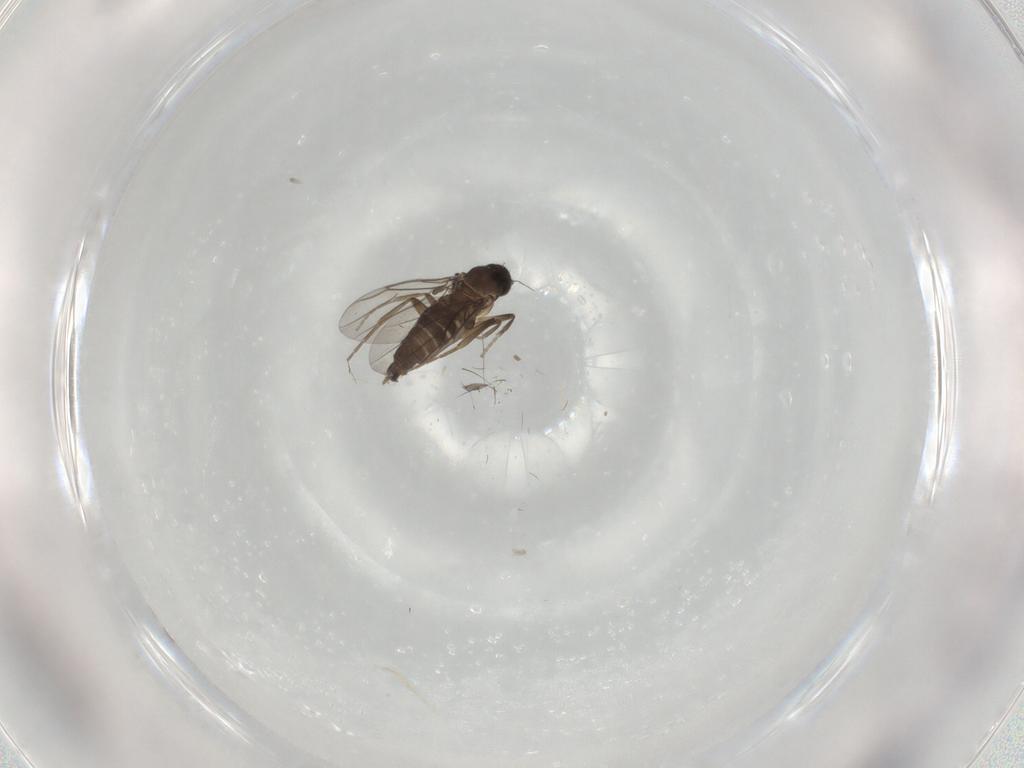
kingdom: Animalia
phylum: Arthropoda
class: Insecta
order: Diptera
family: Phoridae
